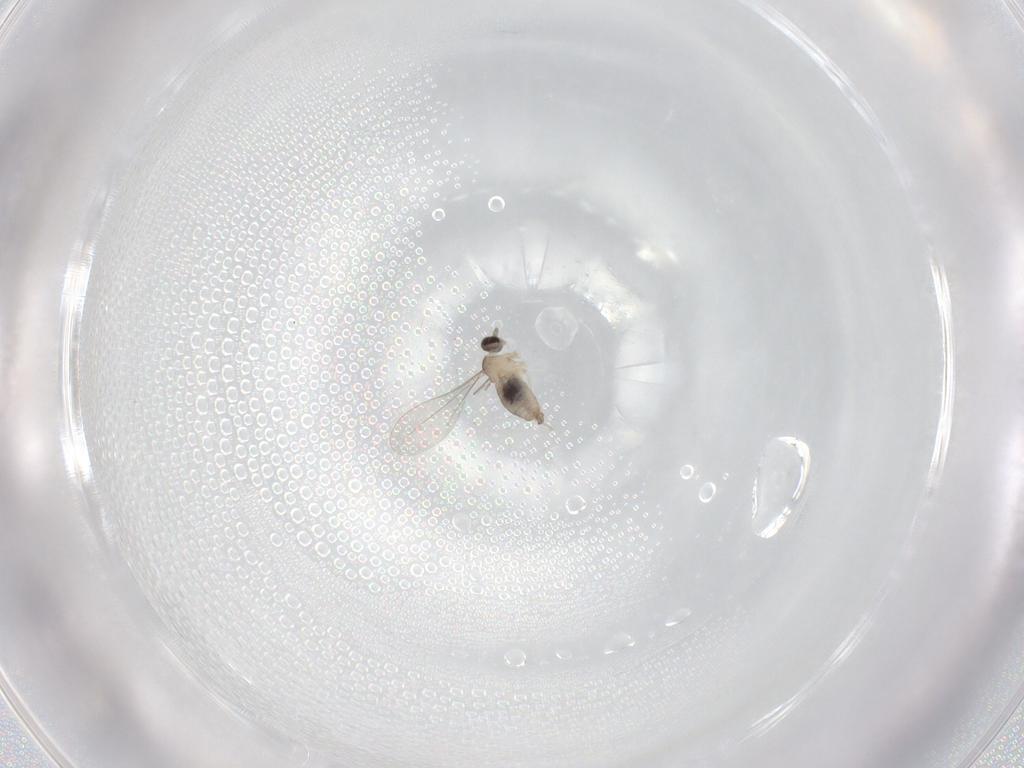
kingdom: Animalia
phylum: Arthropoda
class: Insecta
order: Diptera
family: Cecidomyiidae
